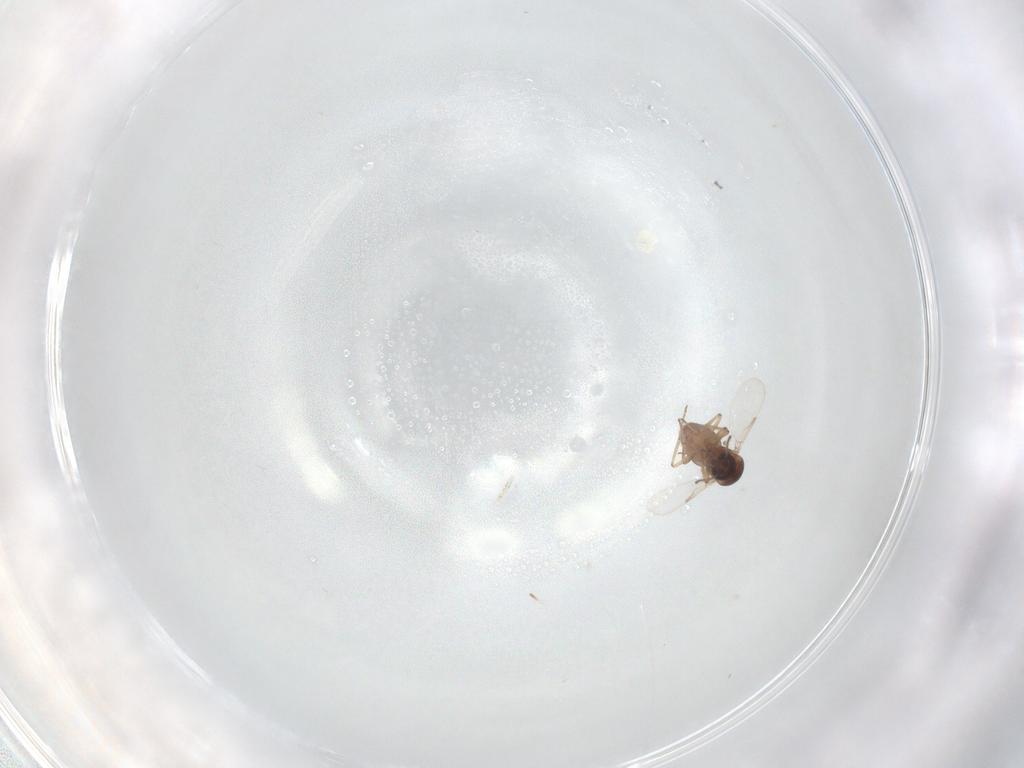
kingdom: Animalia
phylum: Arthropoda
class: Insecta
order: Diptera
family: Ceratopogonidae
